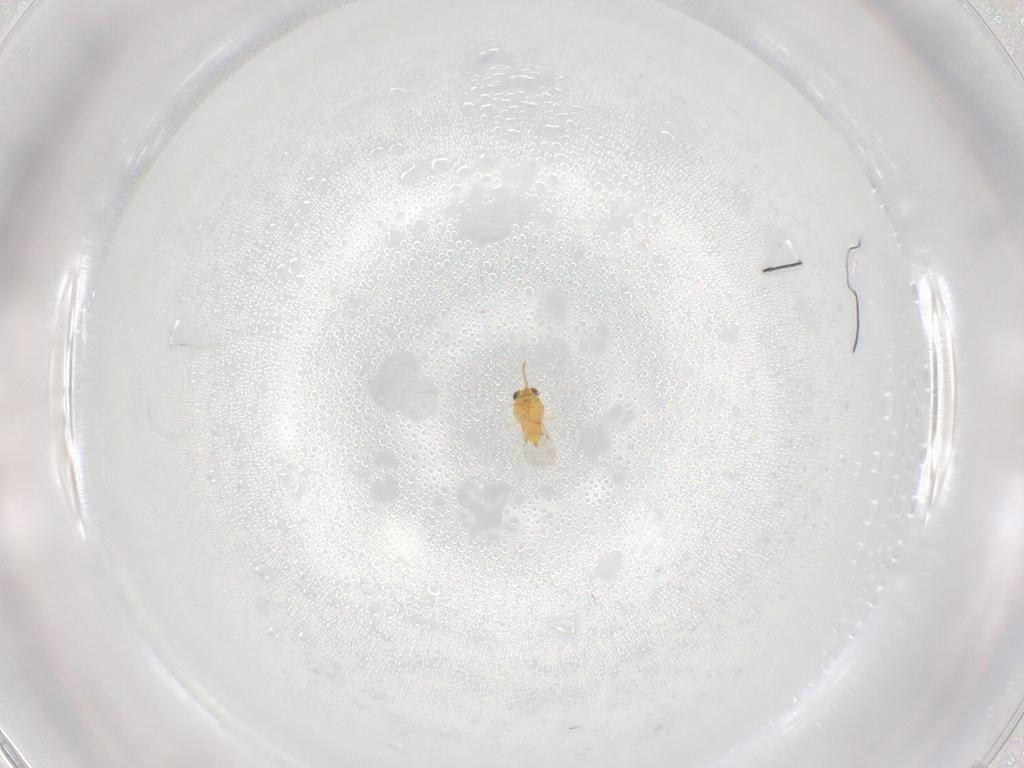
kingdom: Animalia
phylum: Arthropoda
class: Insecta
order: Hymenoptera
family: Aphelinidae
